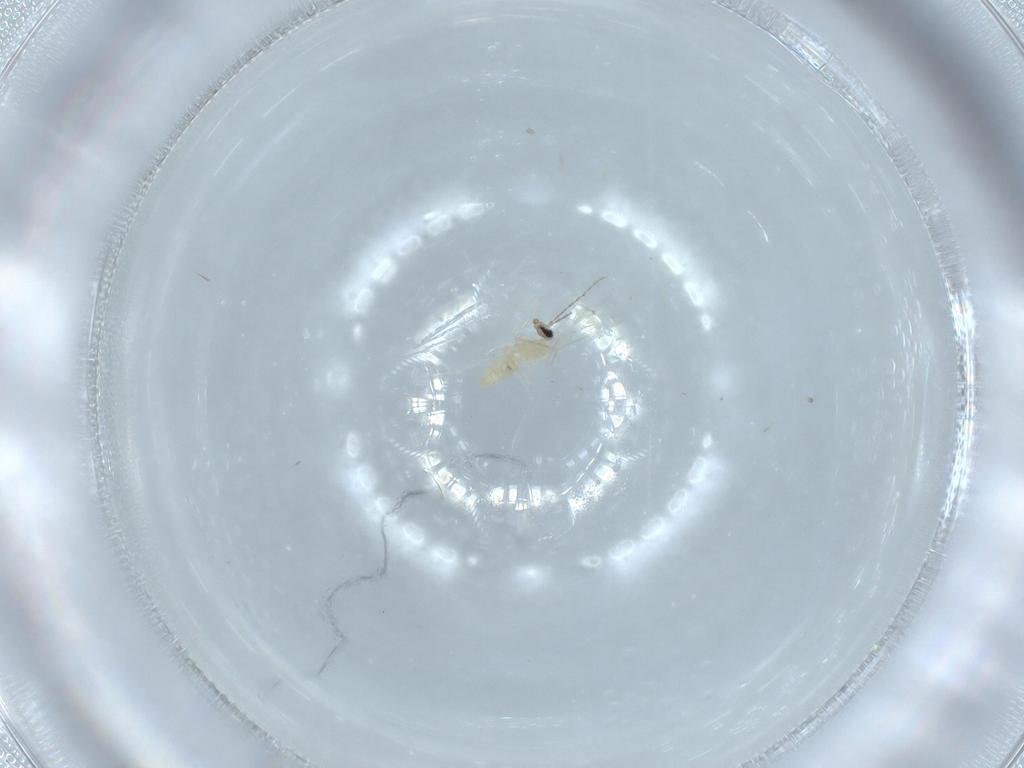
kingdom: Animalia
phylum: Arthropoda
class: Insecta
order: Diptera
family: Cecidomyiidae
